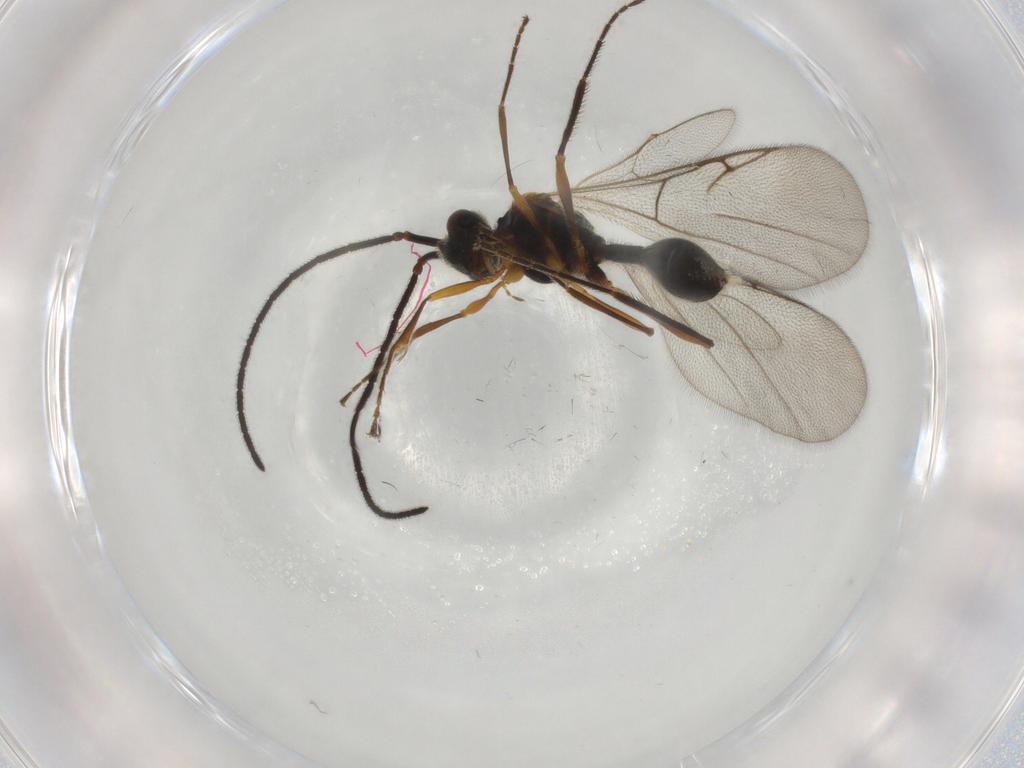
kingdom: Animalia
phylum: Arthropoda
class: Insecta
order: Hymenoptera
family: Diapriidae
